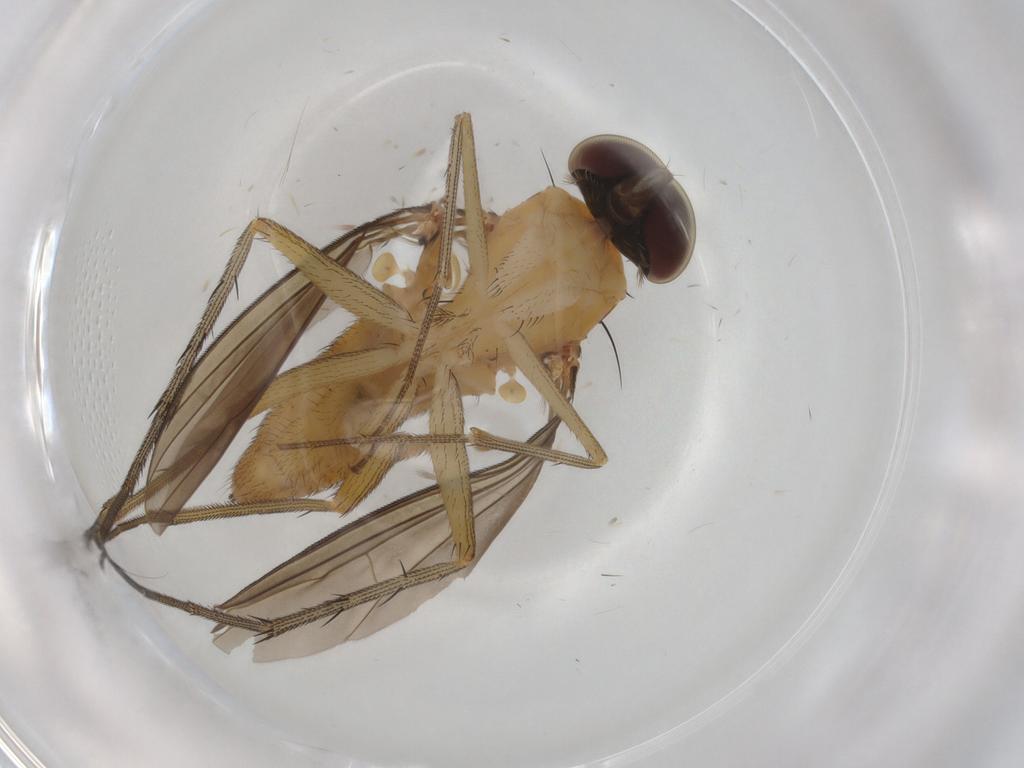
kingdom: Animalia
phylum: Arthropoda
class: Insecta
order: Diptera
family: Dolichopodidae
